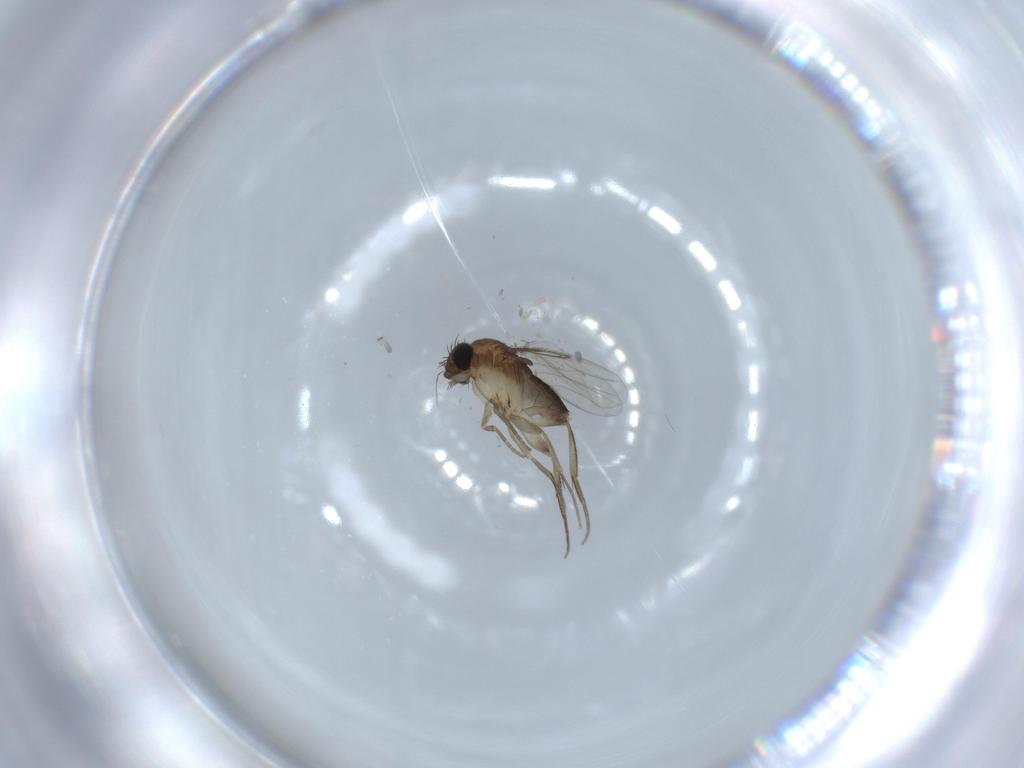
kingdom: Animalia
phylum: Arthropoda
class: Insecta
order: Diptera
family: Phoridae
